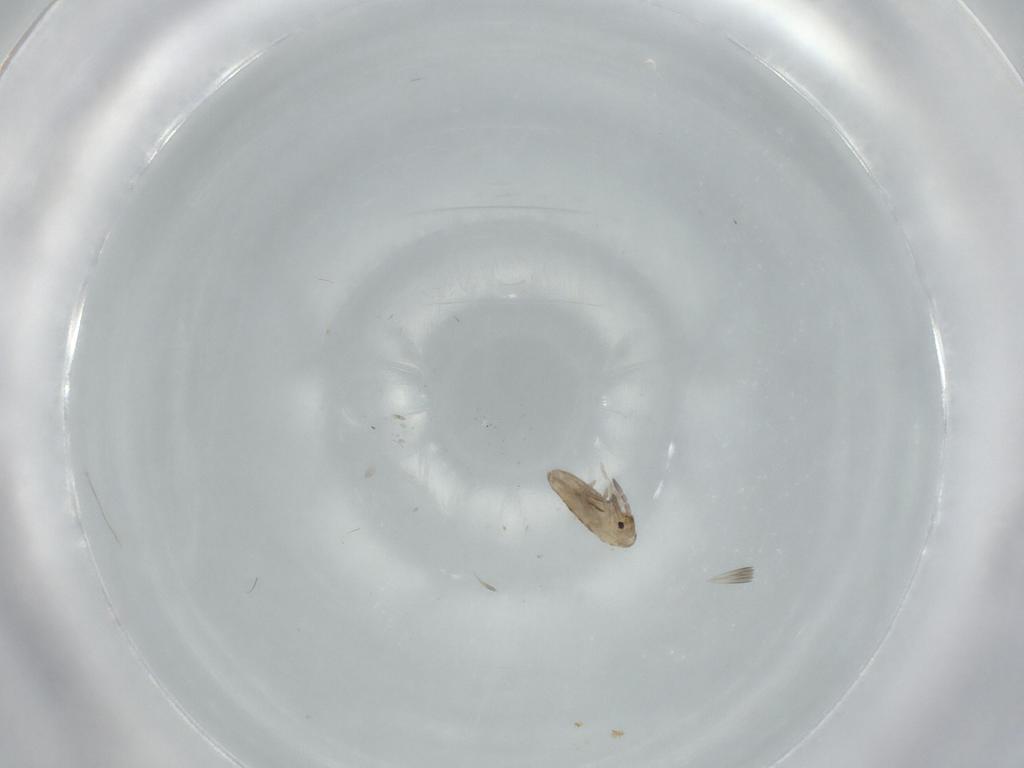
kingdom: Animalia
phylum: Arthropoda
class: Collembola
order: Entomobryomorpha
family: Entomobryidae
